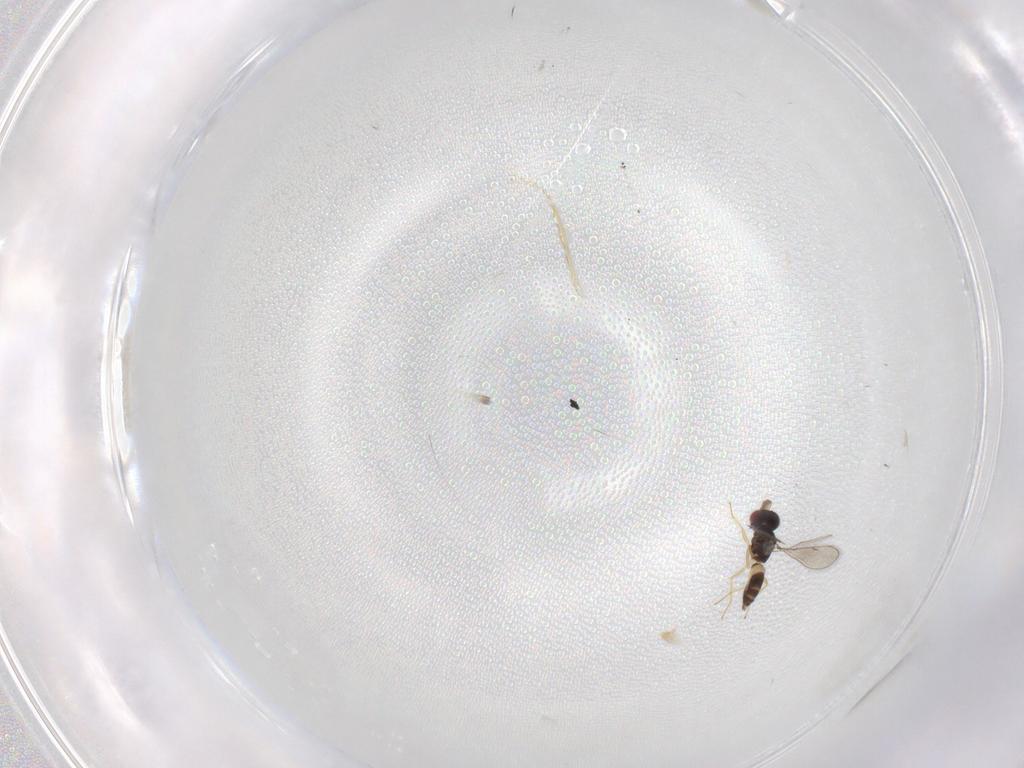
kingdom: Animalia
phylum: Arthropoda
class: Insecta
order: Hymenoptera
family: Eulophidae
